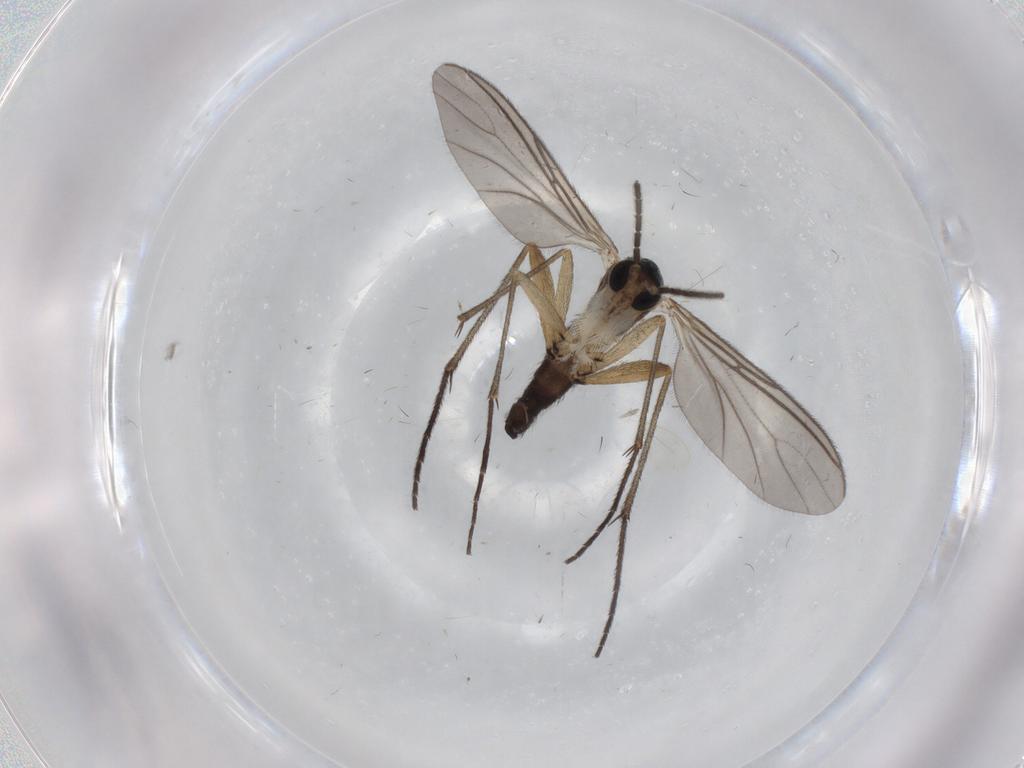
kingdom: Animalia
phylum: Arthropoda
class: Insecta
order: Diptera
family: Sciaridae
